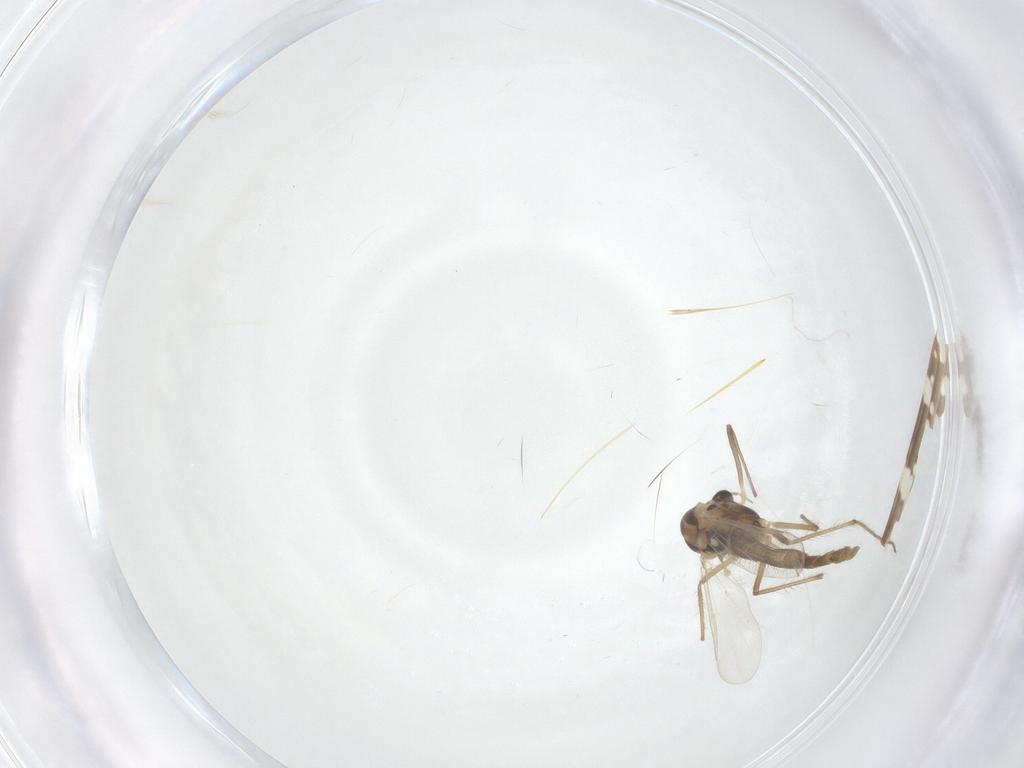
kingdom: Animalia
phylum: Arthropoda
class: Insecta
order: Diptera
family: Chironomidae
